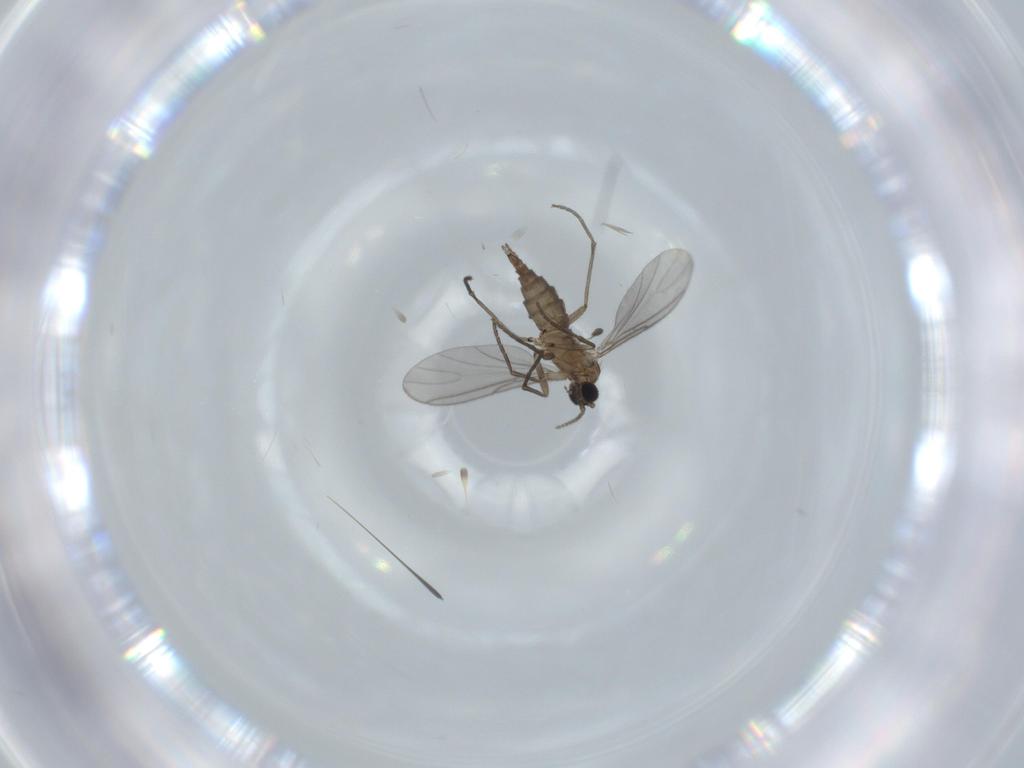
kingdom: Animalia
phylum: Arthropoda
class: Insecta
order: Diptera
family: Sciaridae
